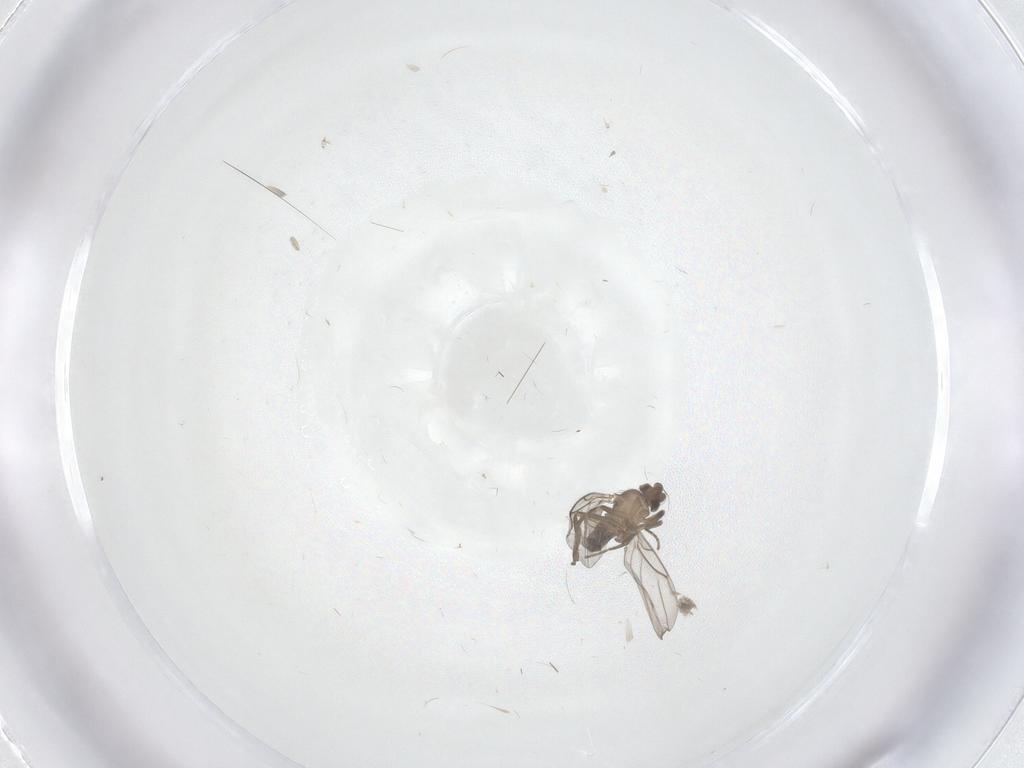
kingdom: Animalia
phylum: Arthropoda
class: Insecta
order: Diptera
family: Phoridae
